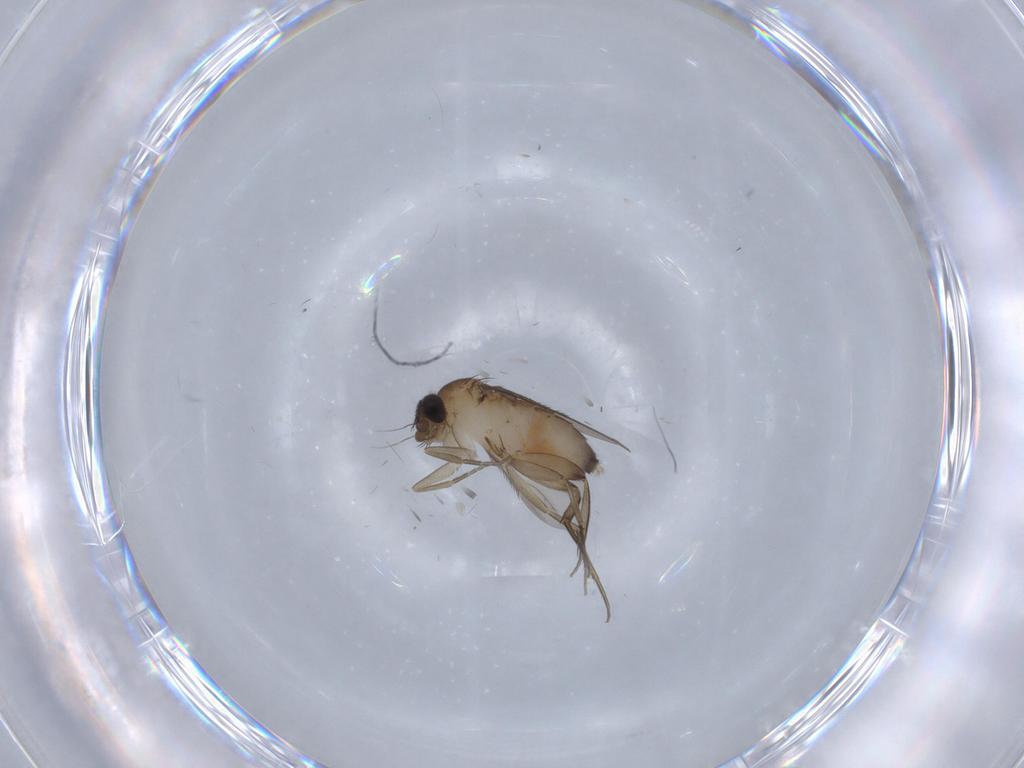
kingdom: Animalia
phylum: Arthropoda
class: Insecta
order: Diptera
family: Phoridae
